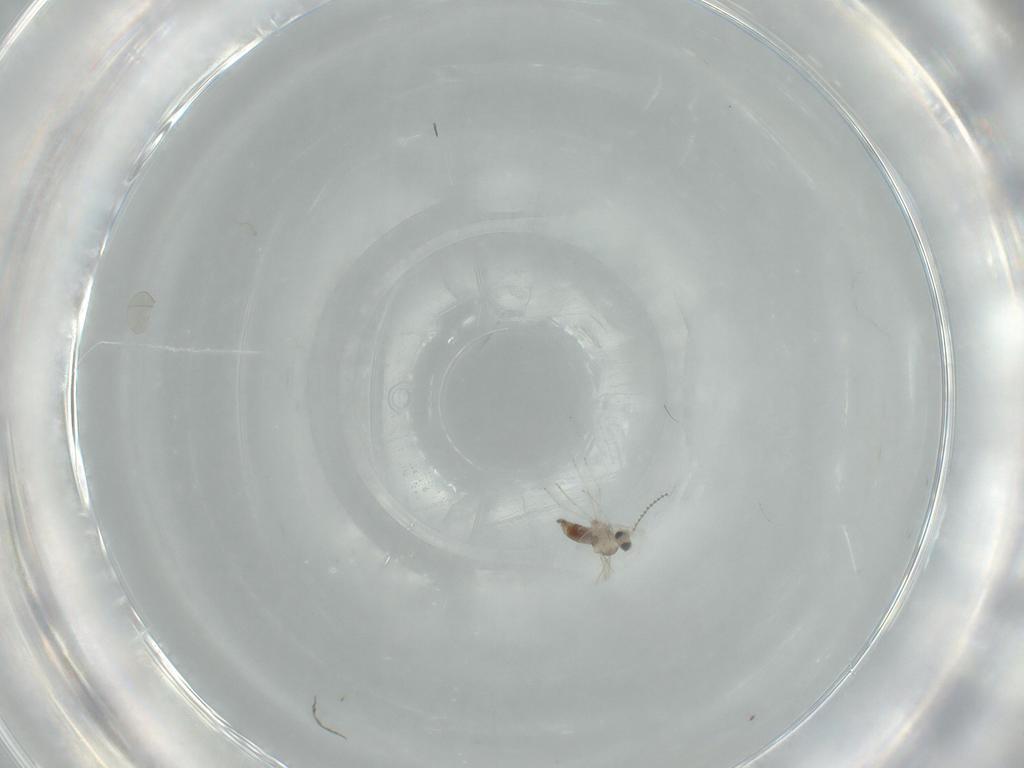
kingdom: Animalia
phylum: Arthropoda
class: Insecta
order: Diptera
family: Cecidomyiidae
